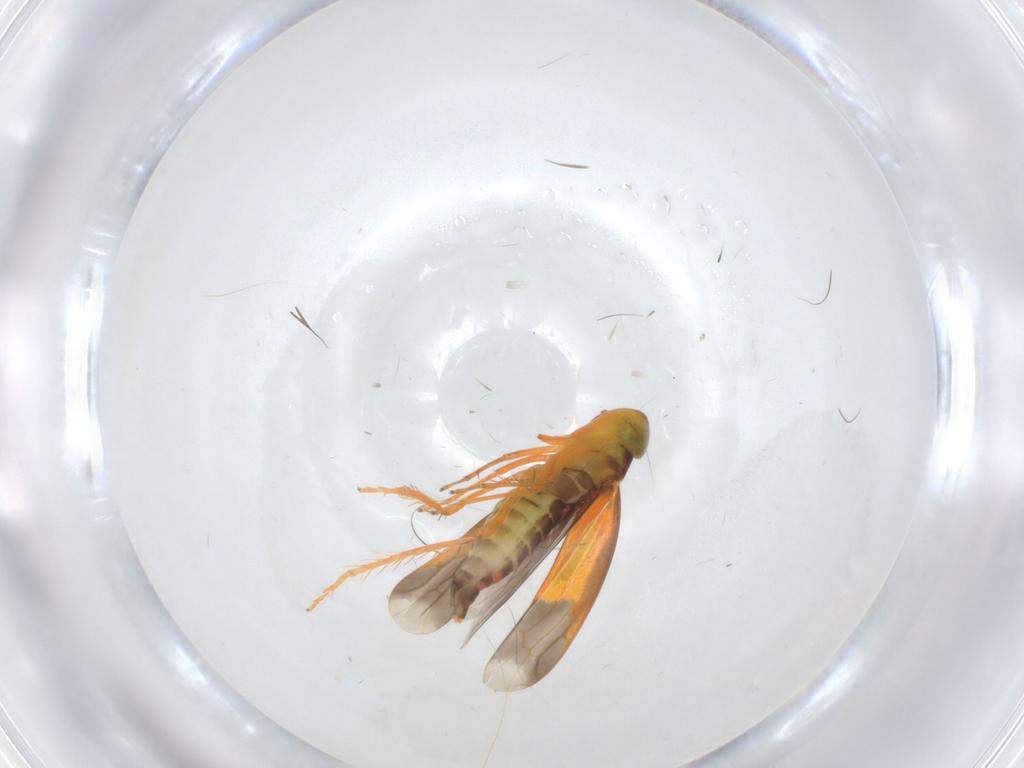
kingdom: Animalia
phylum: Arthropoda
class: Insecta
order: Hemiptera
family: Cicadellidae
